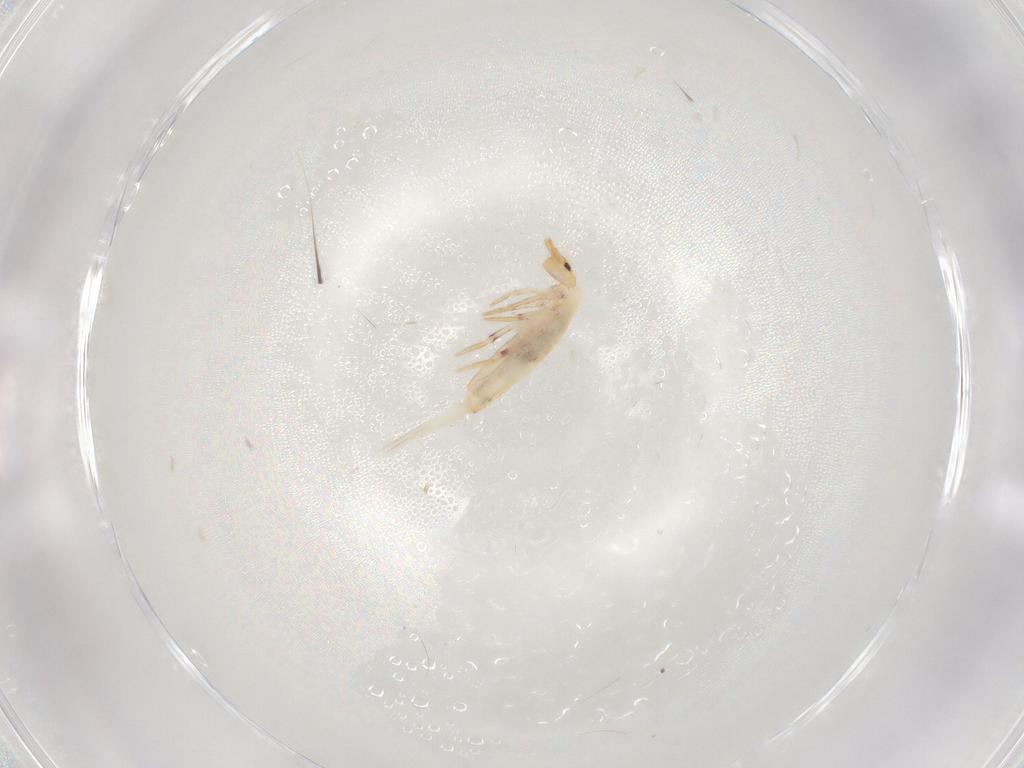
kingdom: Animalia
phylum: Arthropoda
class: Collembola
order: Poduromorpha
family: Hypogastruridae
